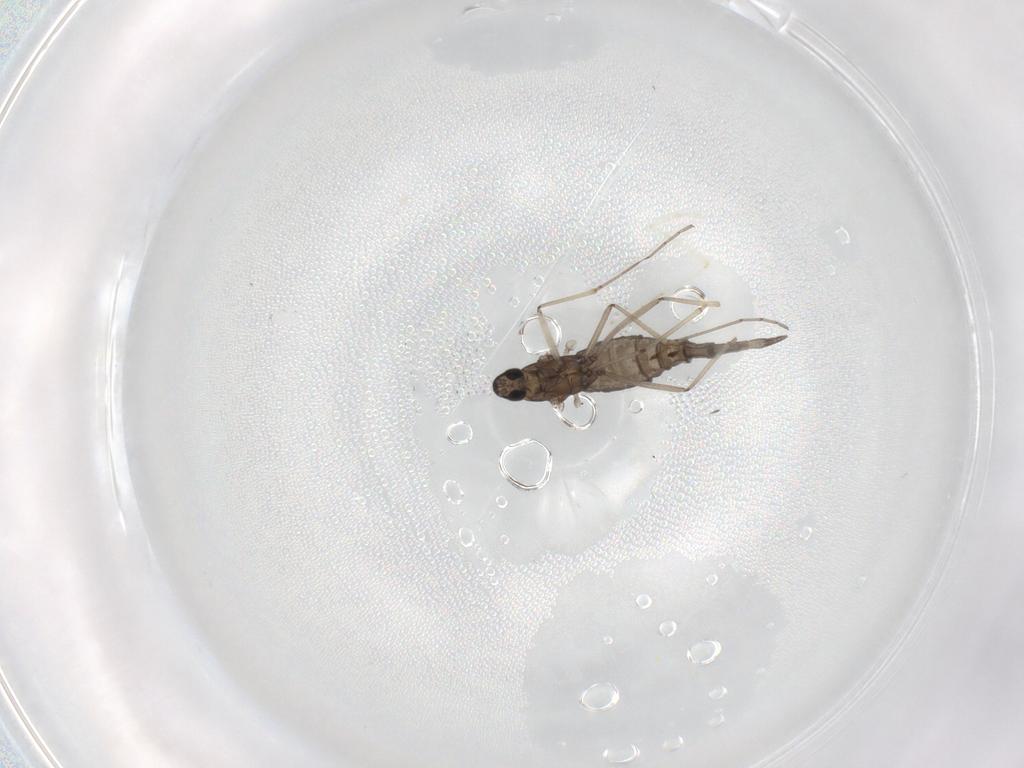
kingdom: Animalia
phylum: Arthropoda
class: Insecta
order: Diptera
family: Cecidomyiidae
